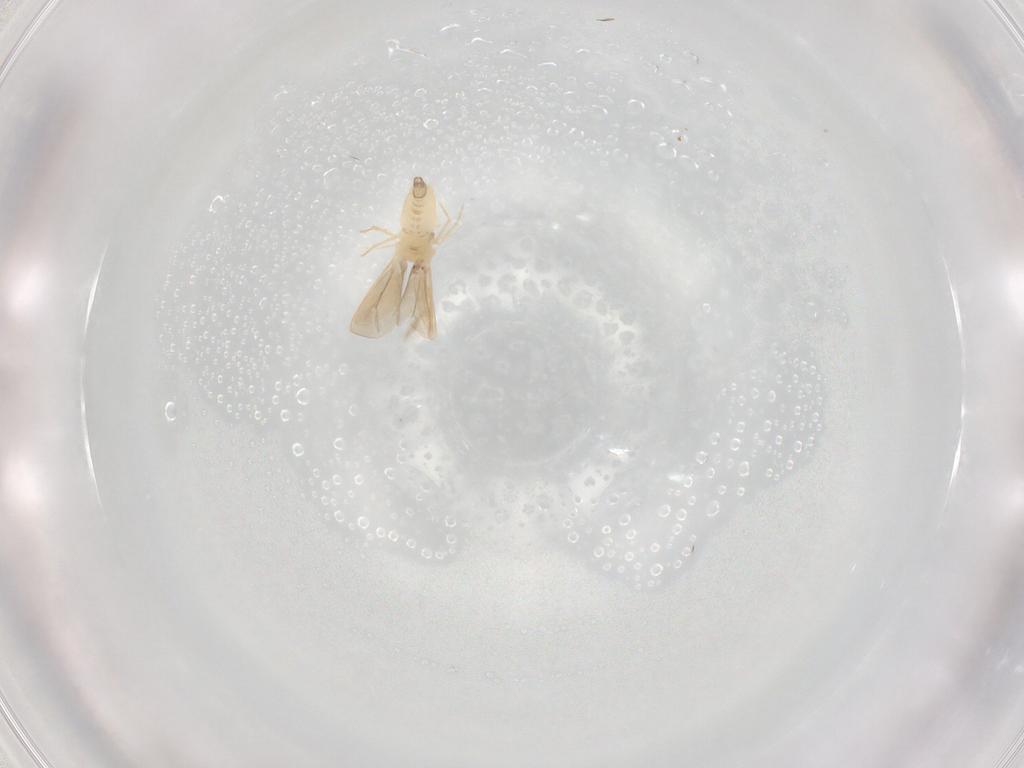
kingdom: Animalia
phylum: Arthropoda
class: Insecta
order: Hemiptera
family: Aleyrodidae
